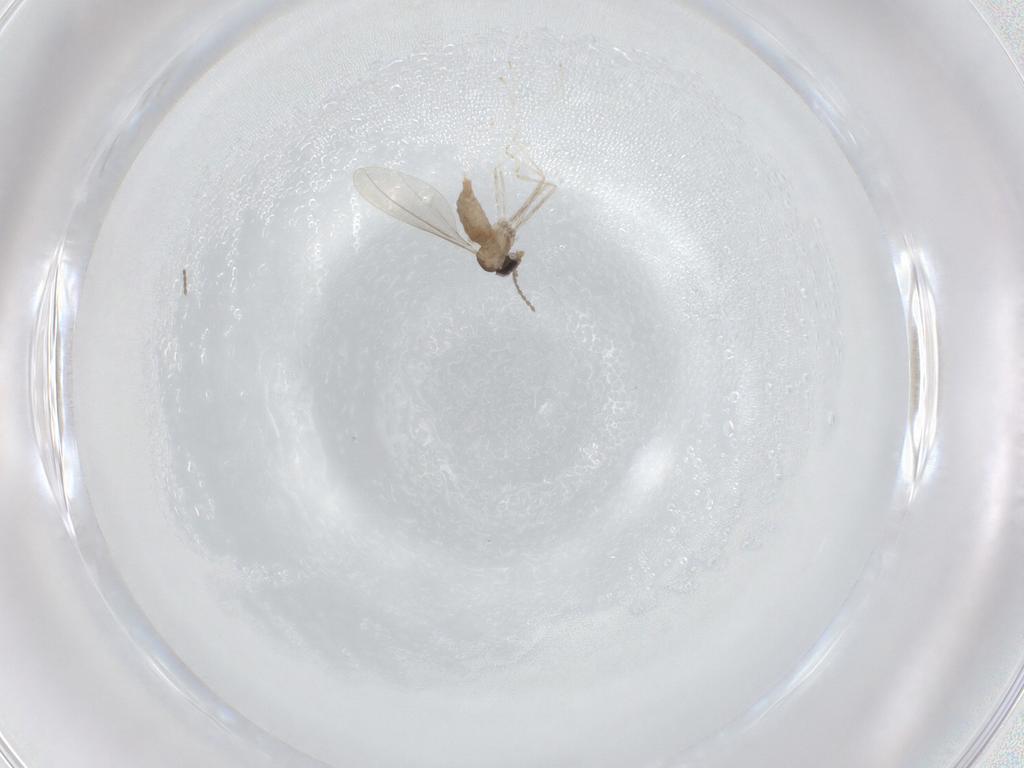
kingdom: Animalia
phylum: Arthropoda
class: Insecta
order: Diptera
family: Cecidomyiidae
